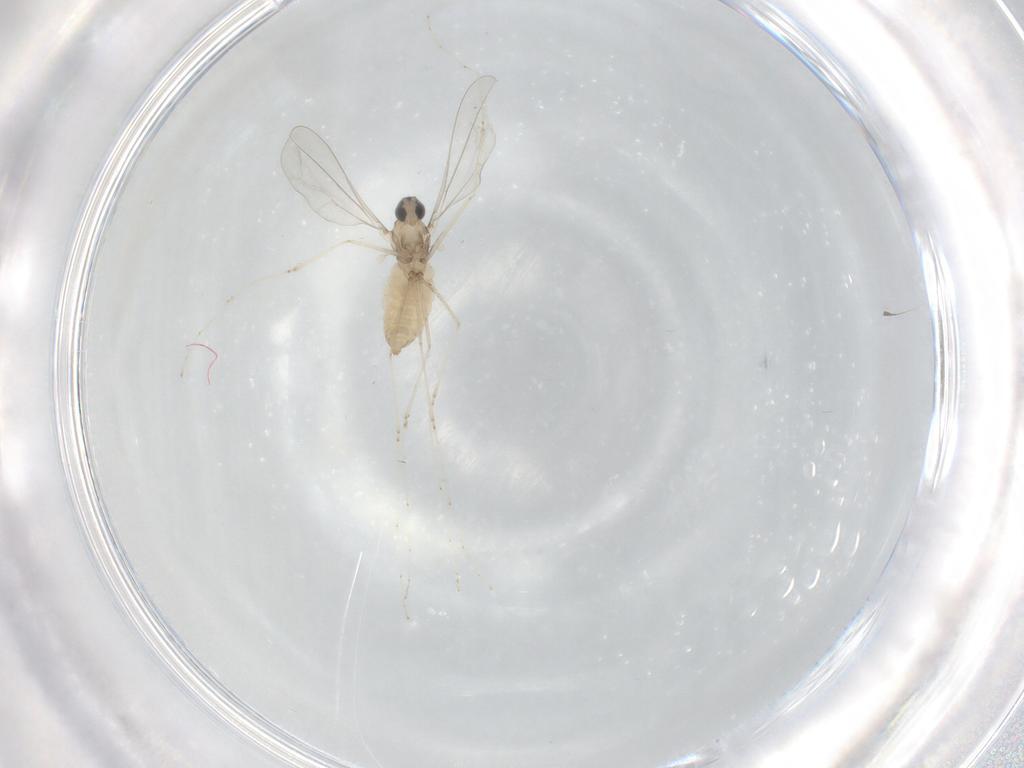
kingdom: Animalia
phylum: Arthropoda
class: Insecta
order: Diptera
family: Cecidomyiidae
